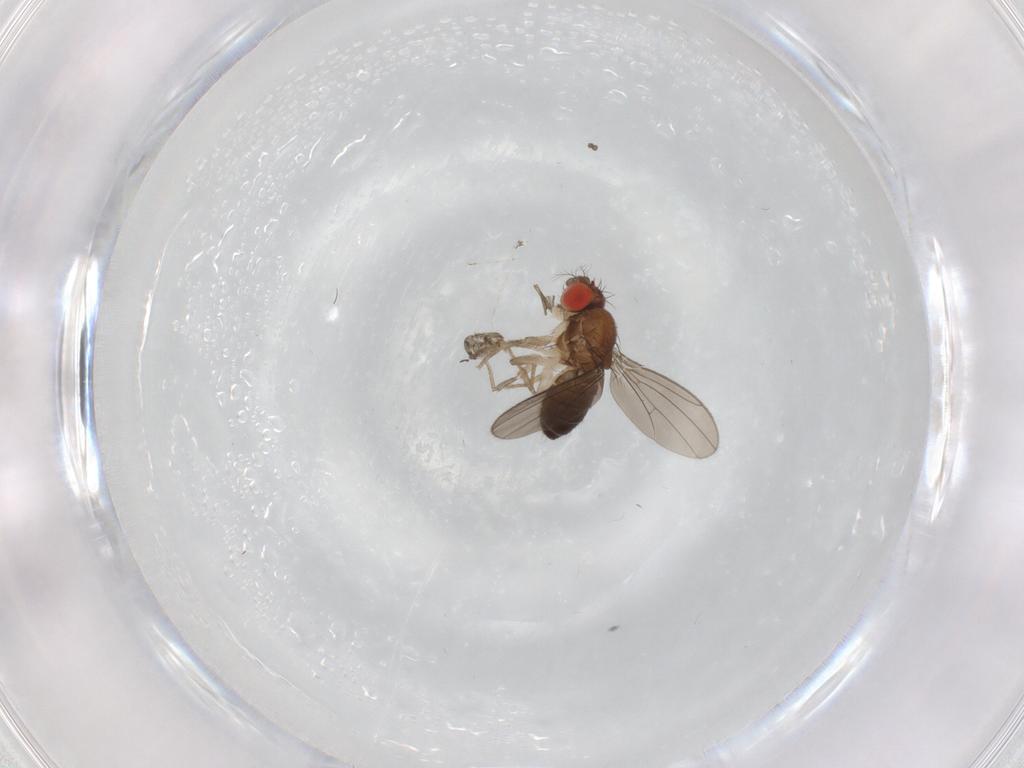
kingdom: Animalia
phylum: Arthropoda
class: Insecta
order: Diptera
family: Drosophilidae
